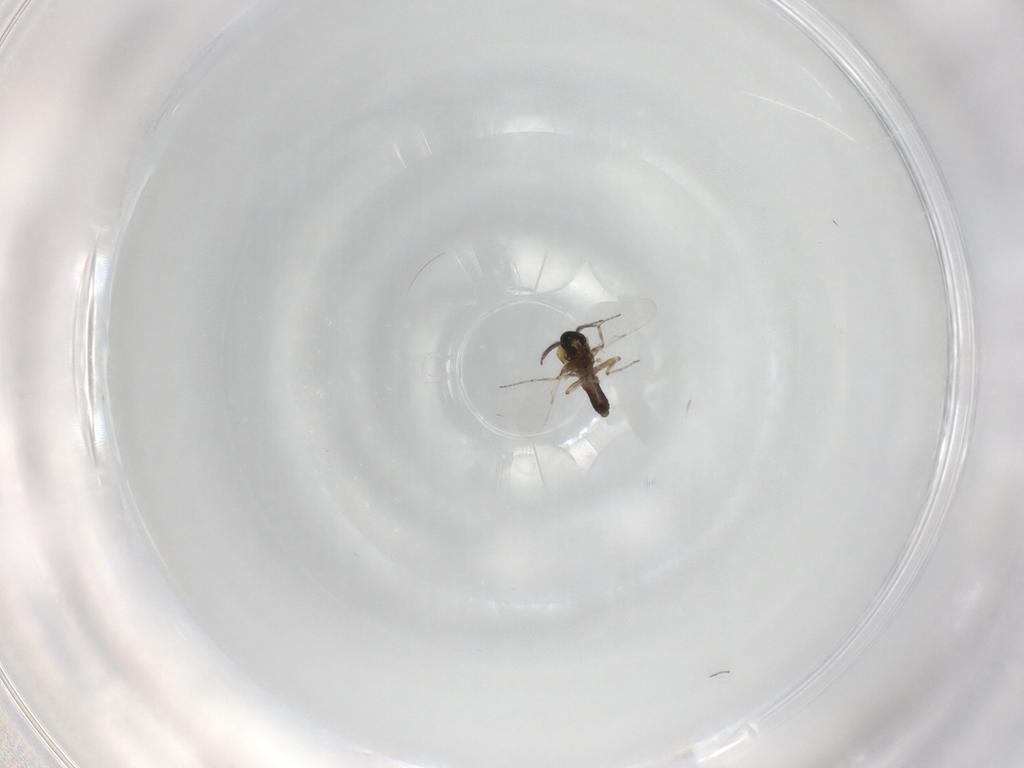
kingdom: Animalia
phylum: Arthropoda
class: Insecta
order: Diptera
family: Ceratopogonidae
